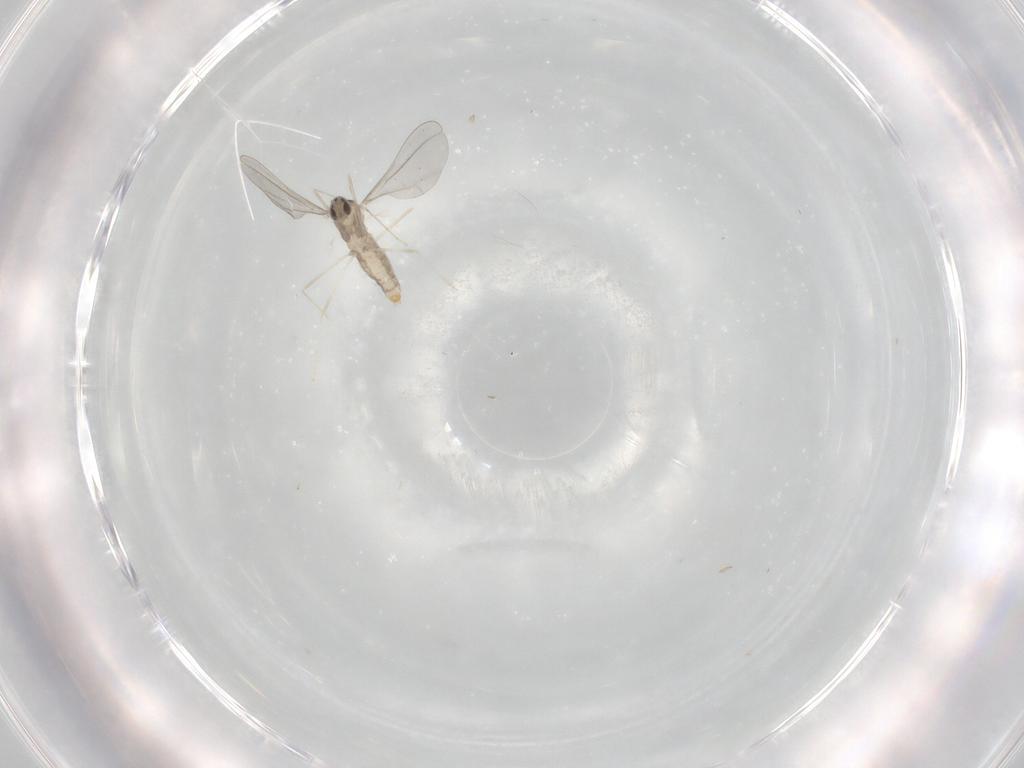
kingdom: Animalia
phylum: Arthropoda
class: Insecta
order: Diptera
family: Cecidomyiidae
